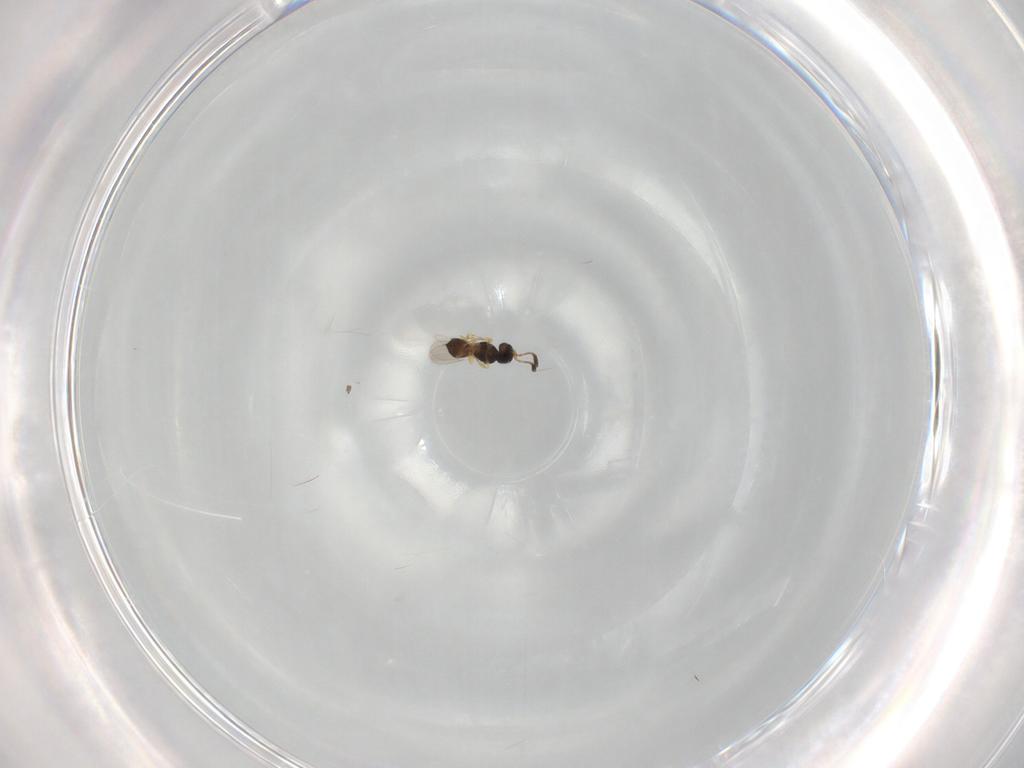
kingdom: Animalia
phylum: Arthropoda
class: Insecta
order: Hymenoptera
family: Scelionidae
